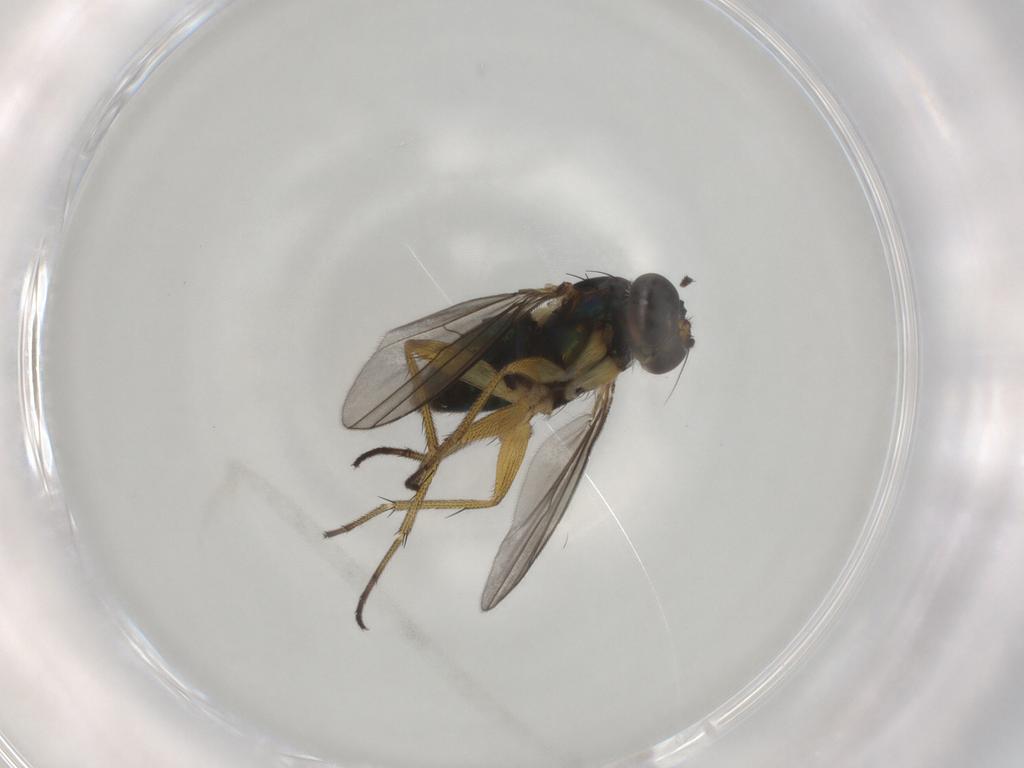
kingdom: Animalia
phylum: Arthropoda
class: Insecta
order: Diptera
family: Dolichopodidae
